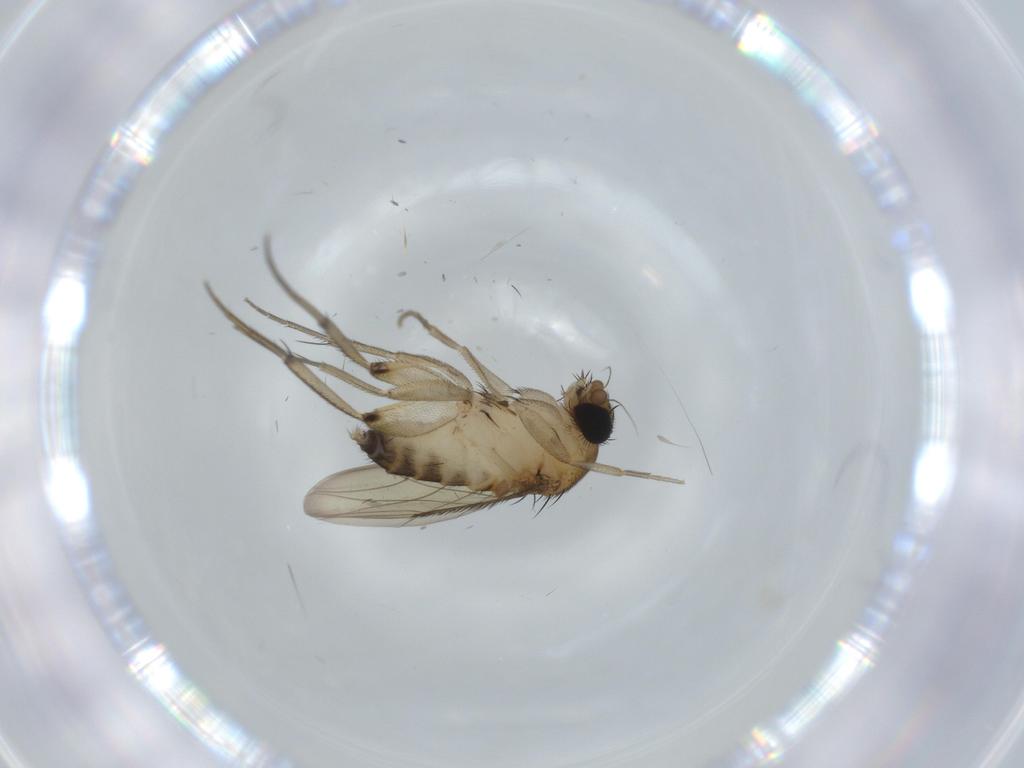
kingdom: Animalia
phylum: Arthropoda
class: Insecta
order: Diptera
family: Phoridae
